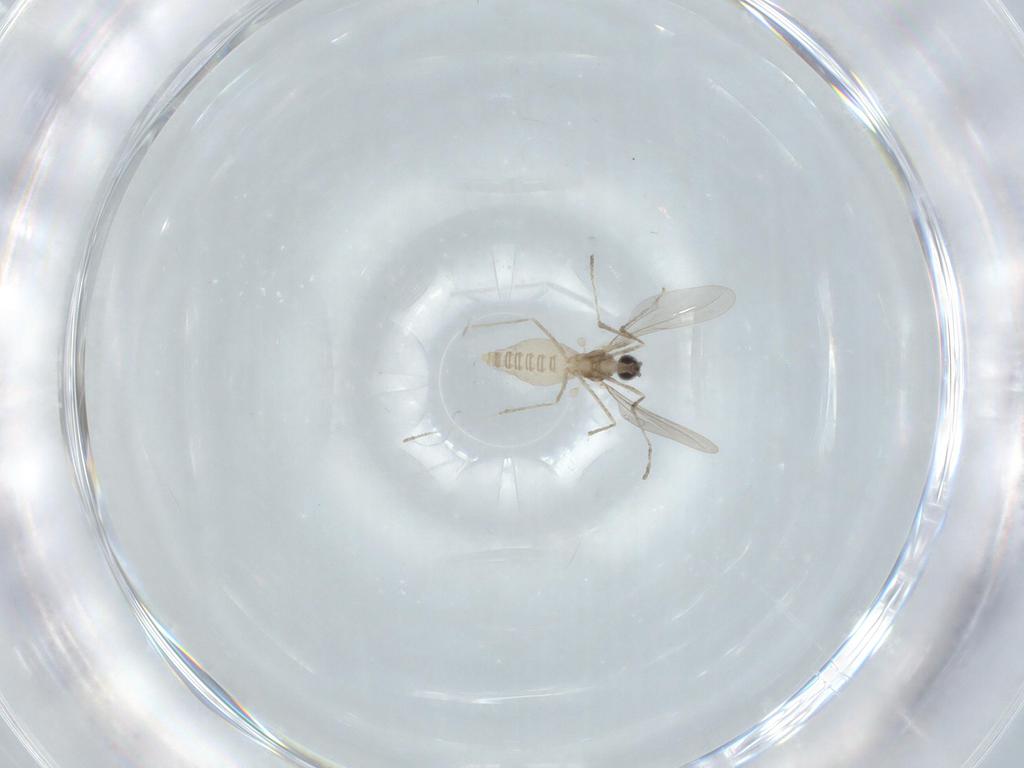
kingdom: Animalia
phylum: Arthropoda
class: Insecta
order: Diptera
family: Cecidomyiidae
